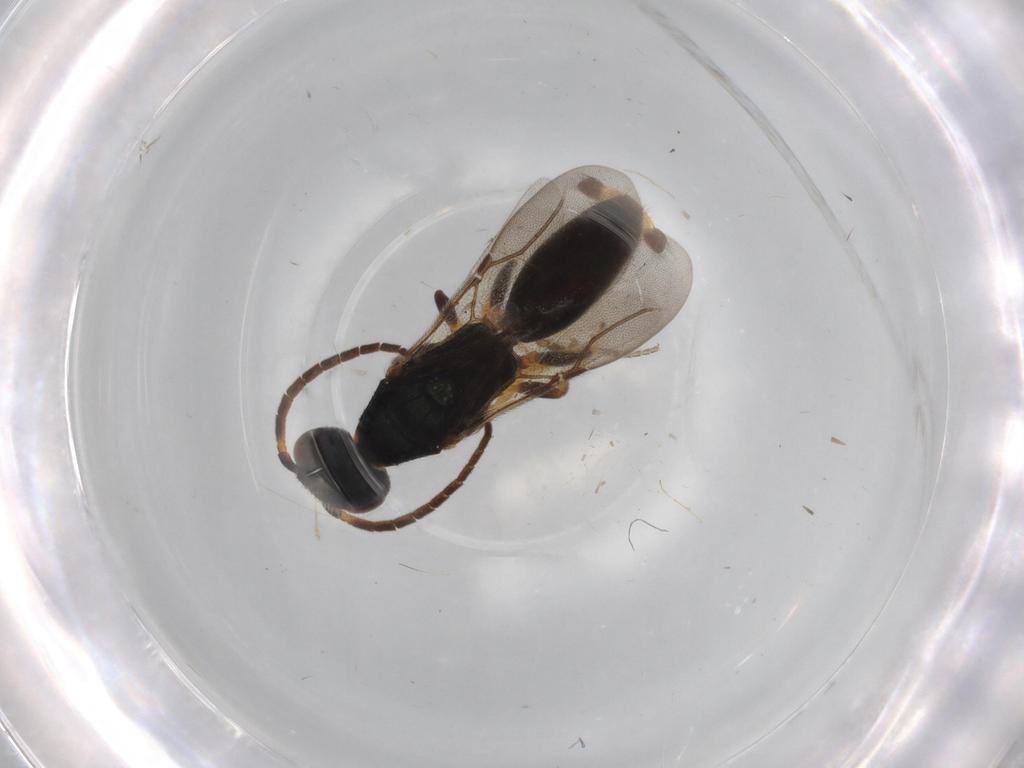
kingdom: Animalia
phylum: Arthropoda
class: Insecta
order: Hymenoptera
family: Bethylidae
